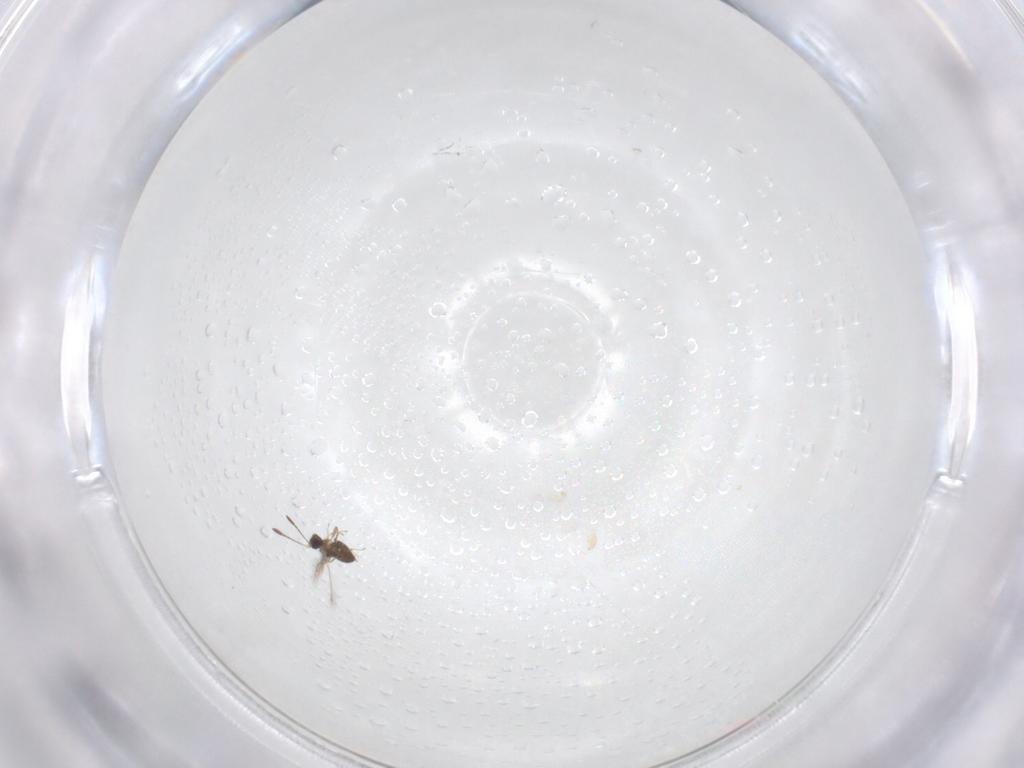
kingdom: Animalia
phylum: Arthropoda
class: Insecta
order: Hymenoptera
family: Mymaridae
